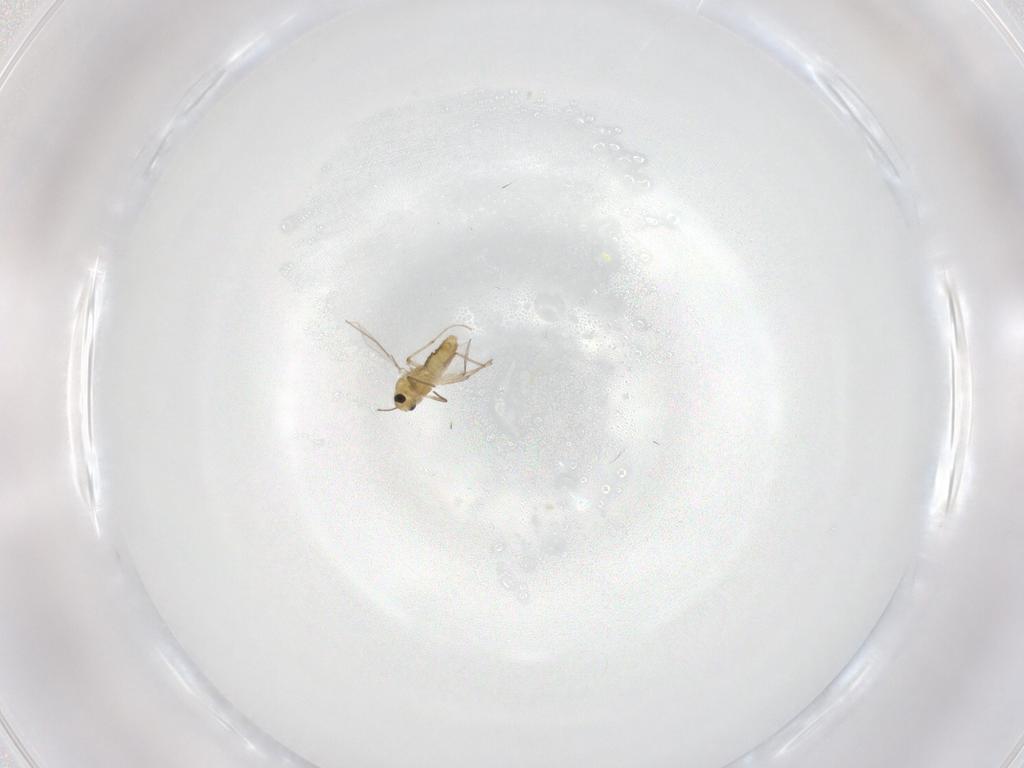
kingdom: Animalia
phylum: Arthropoda
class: Insecta
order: Diptera
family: Chironomidae
